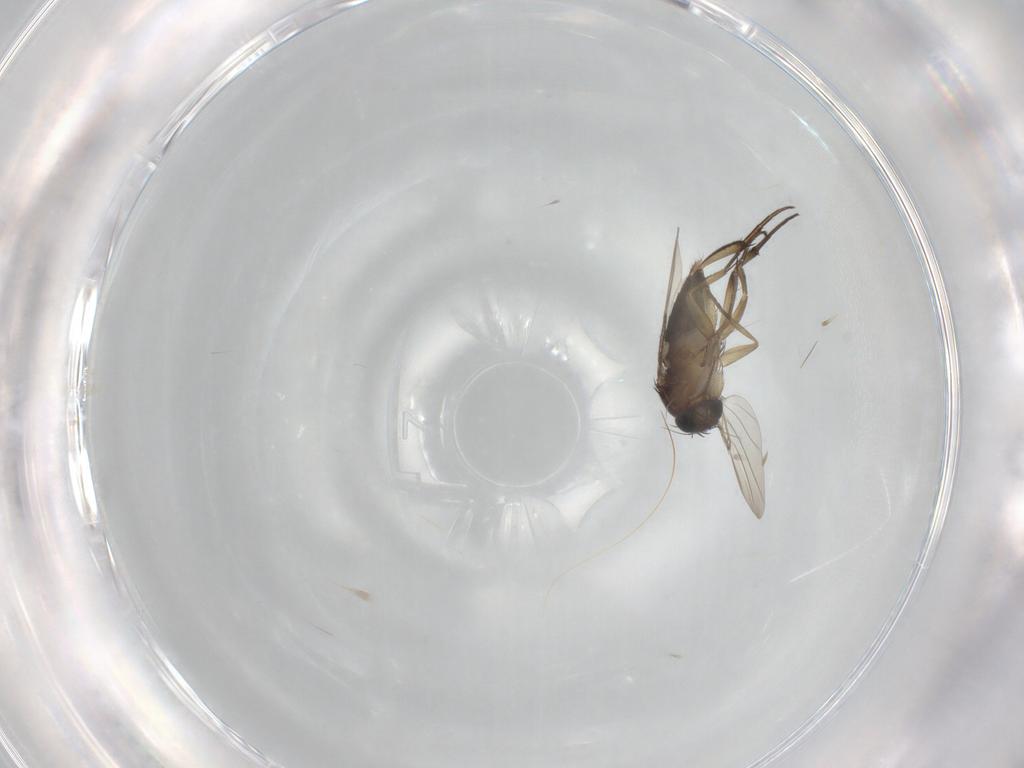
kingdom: Animalia
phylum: Arthropoda
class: Insecta
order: Diptera
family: Phoridae
